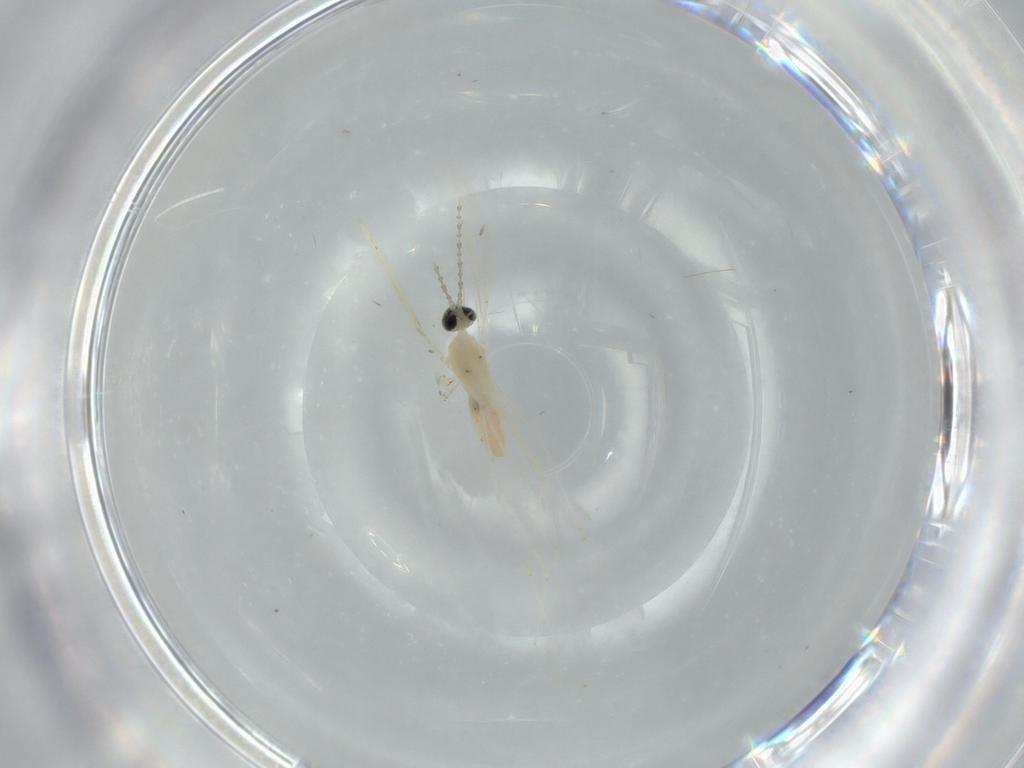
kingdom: Animalia
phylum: Arthropoda
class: Insecta
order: Diptera
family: Cecidomyiidae
